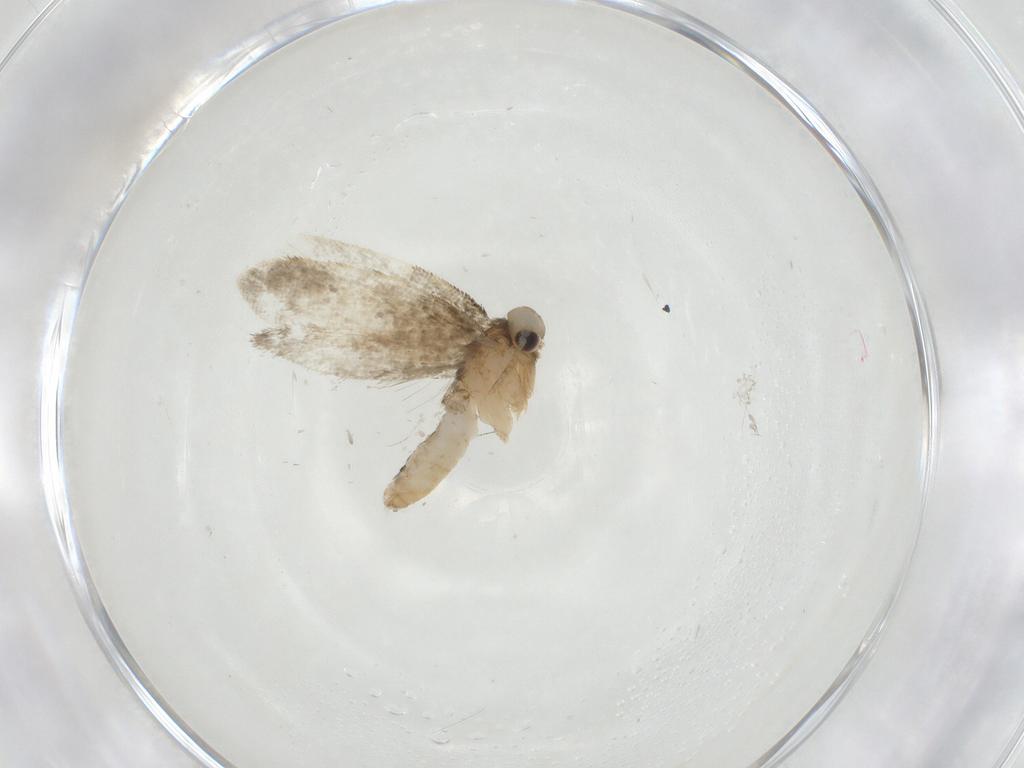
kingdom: Animalia
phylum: Arthropoda
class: Insecta
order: Lepidoptera
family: Psychidae
